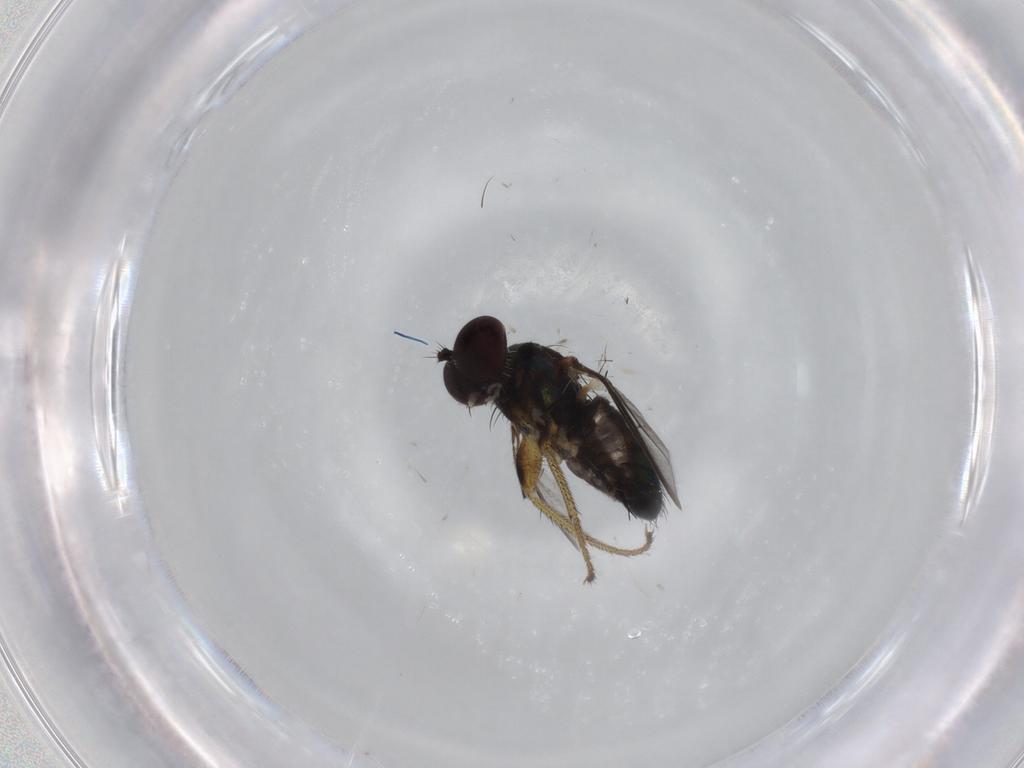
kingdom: Animalia
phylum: Arthropoda
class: Insecta
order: Diptera
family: Dolichopodidae
